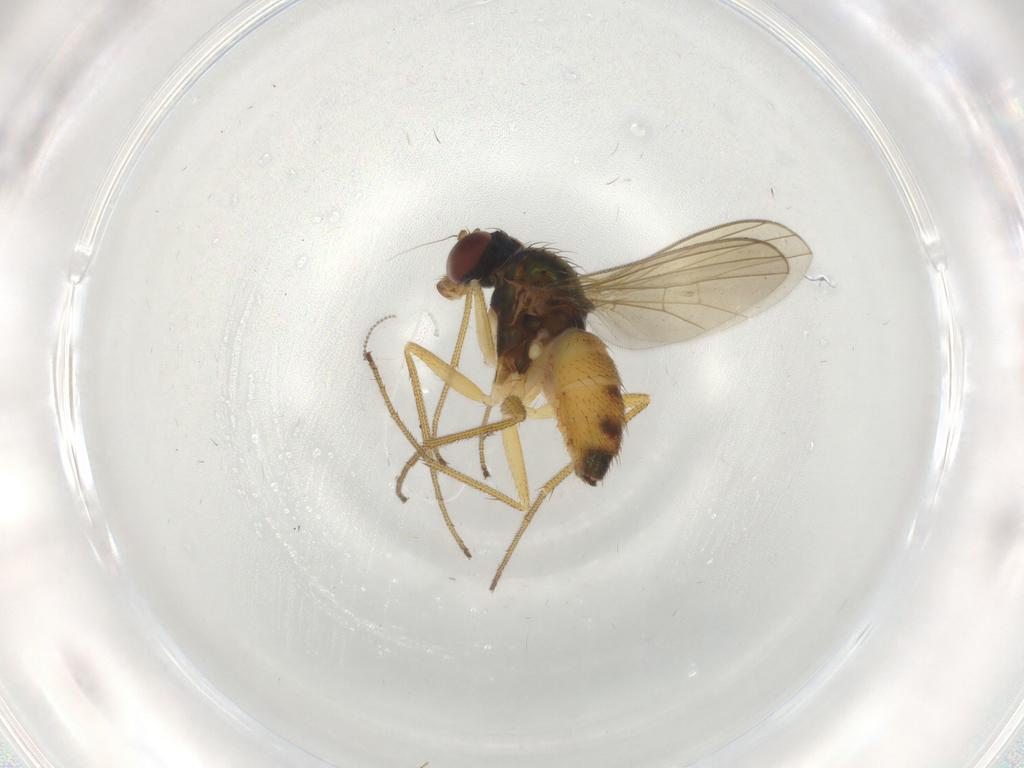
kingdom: Animalia
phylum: Arthropoda
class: Insecta
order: Diptera
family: Dolichopodidae
